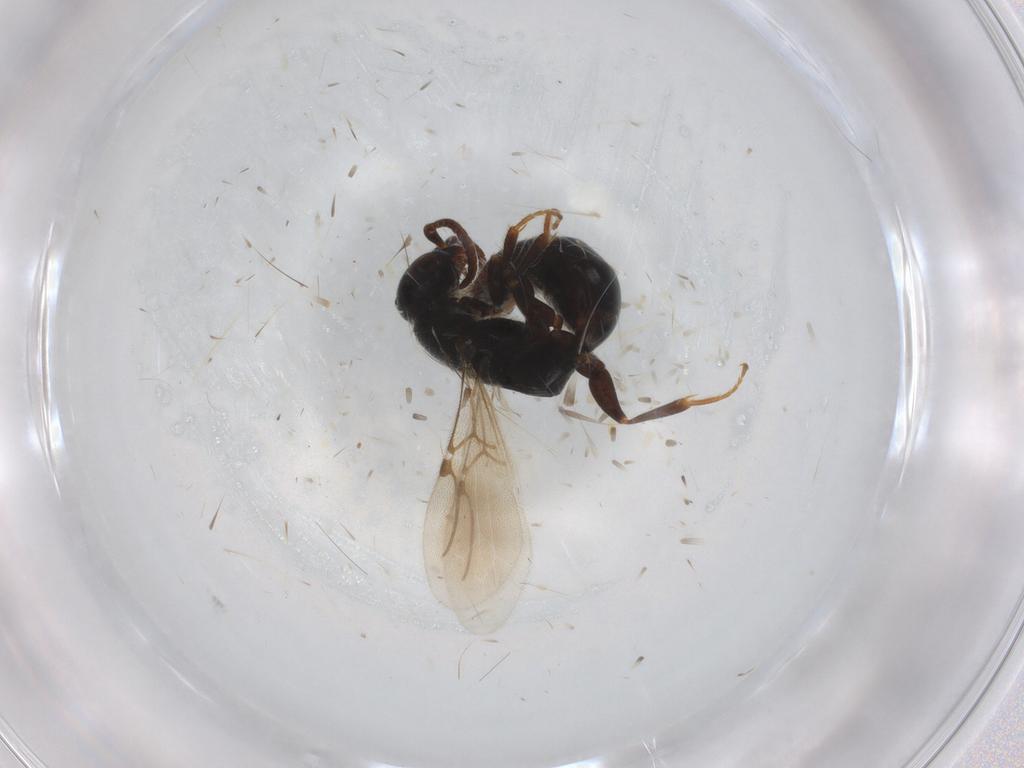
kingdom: Animalia
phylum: Arthropoda
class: Insecta
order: Hymenoptera
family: Bethylidae
